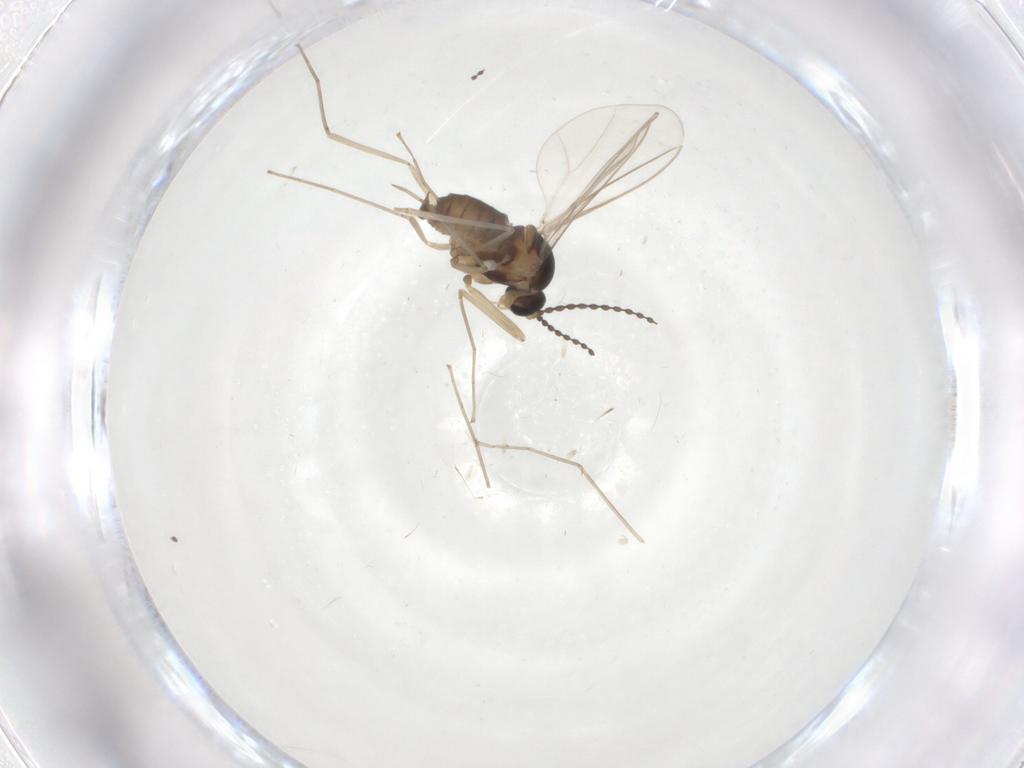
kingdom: Animalia
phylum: Arthropoda
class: Insecta
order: Diptera
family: Cecidomyiidae
